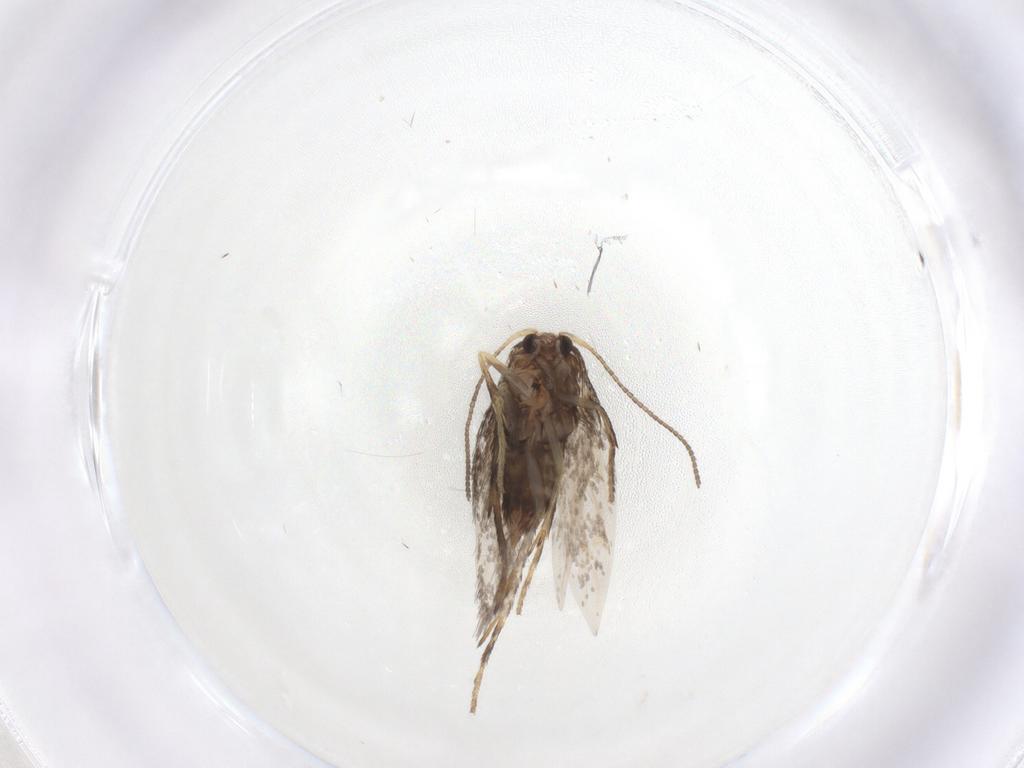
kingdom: Animalia
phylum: Arthropoda
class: Insecta
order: Lepidoptera
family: Nepticulidae
